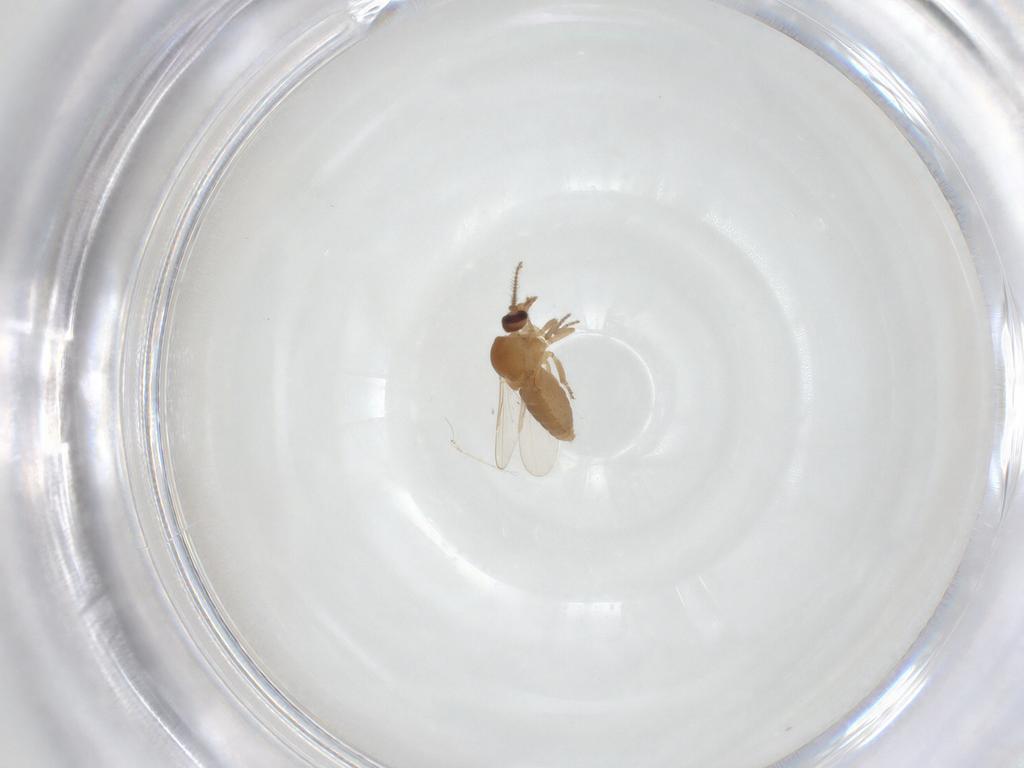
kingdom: Animalia
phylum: Arthropoda
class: Insecta
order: Diptera
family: Ceratopogonidae
